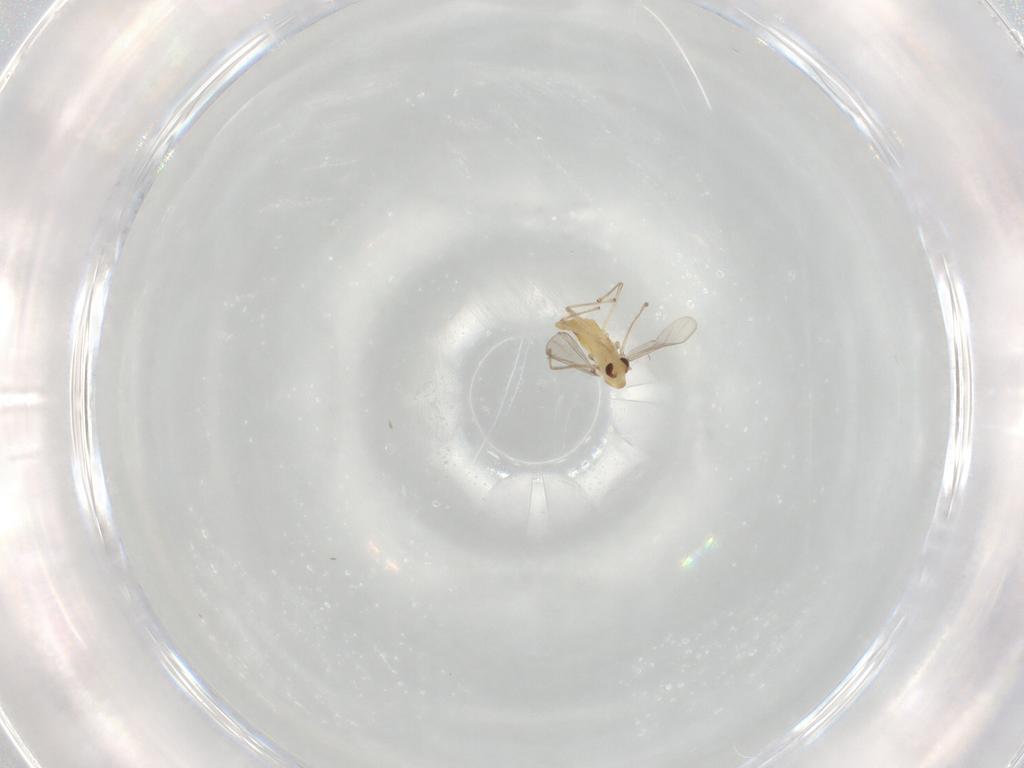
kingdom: Animalia
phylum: Arthropoda
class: Insecta
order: Diptera
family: Chironomidae
